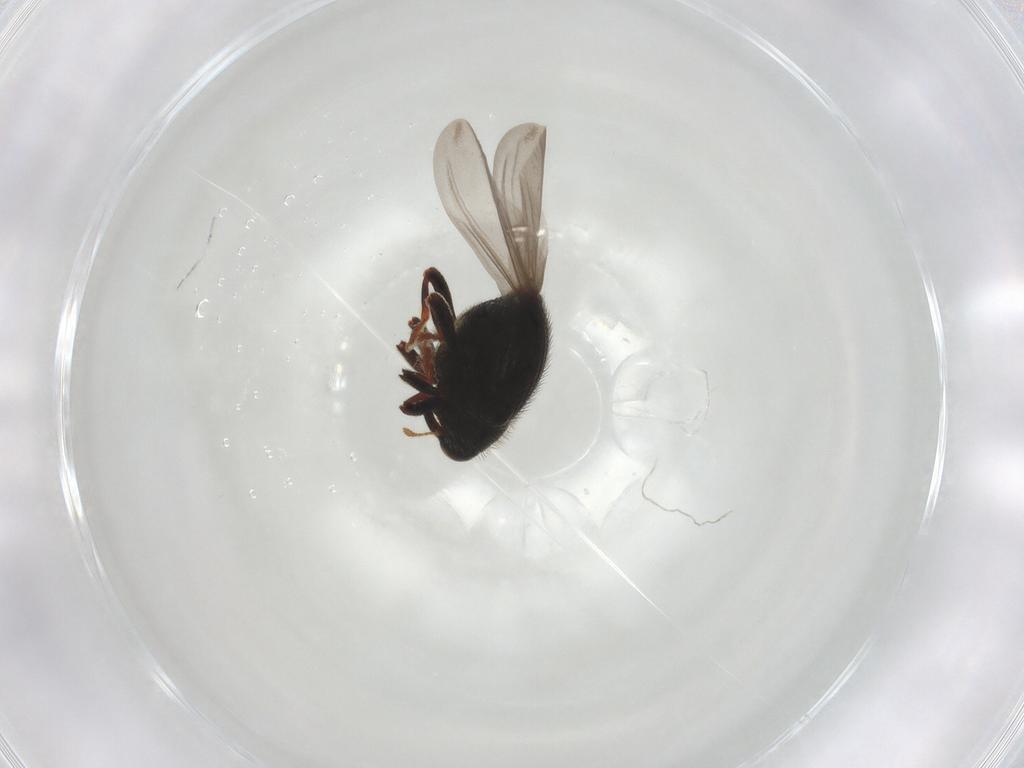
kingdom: Animalia
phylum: Arthropoda
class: Insecta
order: Coleoptera
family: Curculionidae
